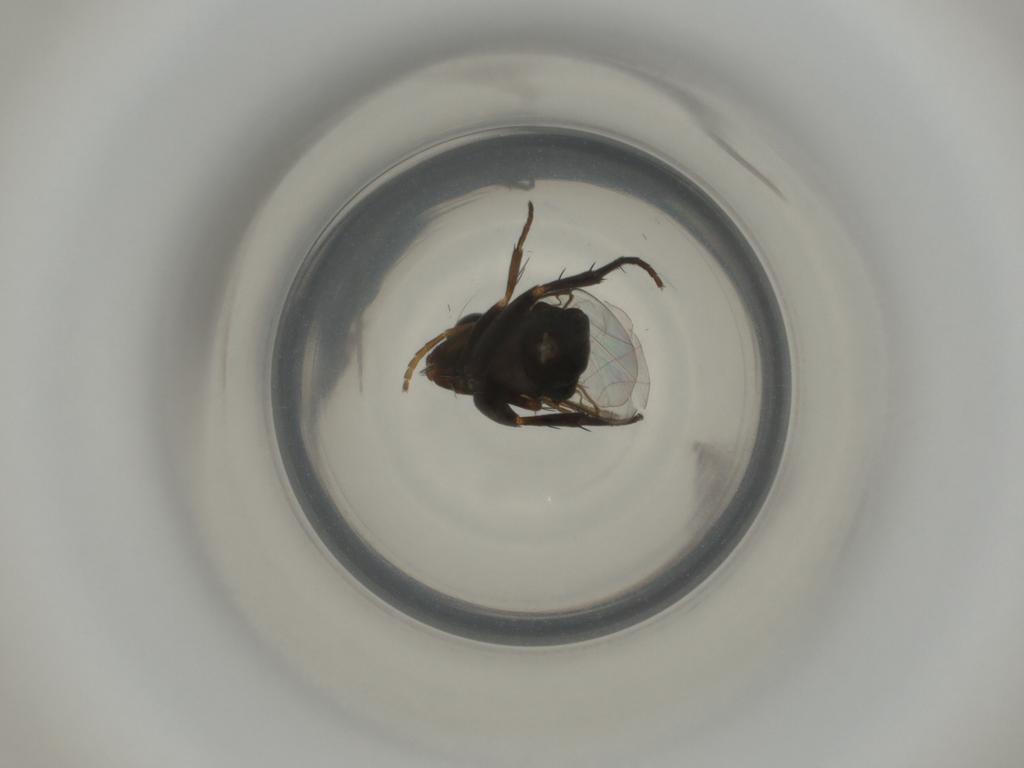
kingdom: Animalia
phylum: Arthropoda
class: Insecta
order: Diptera
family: Phoridae
